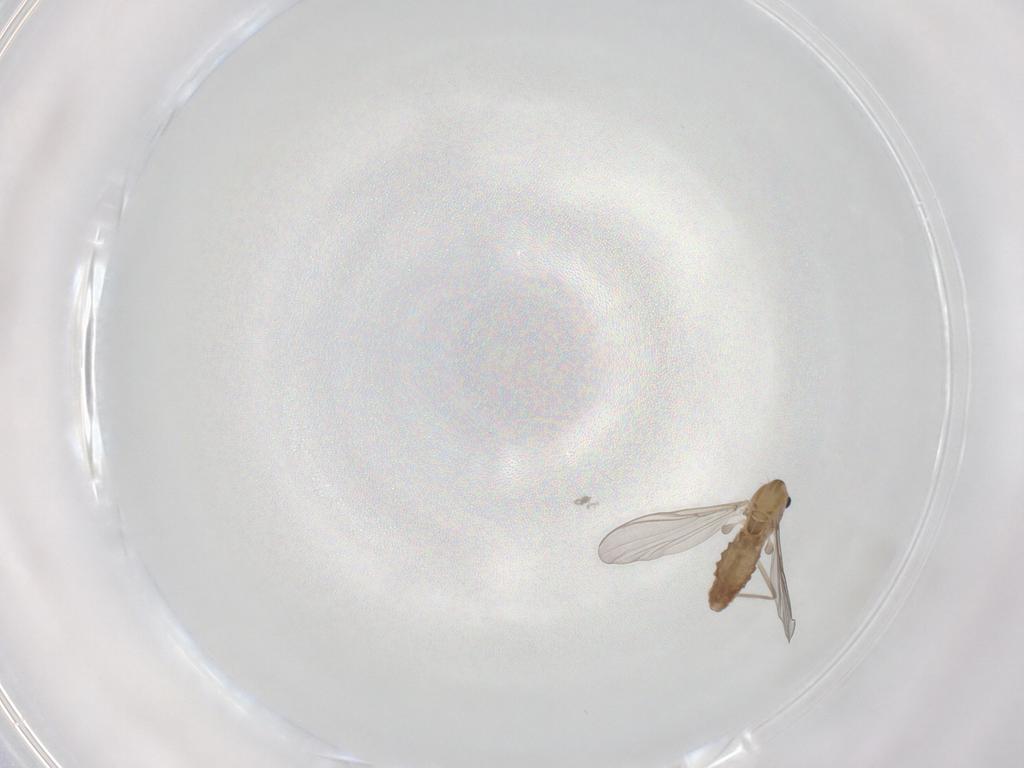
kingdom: Animalia
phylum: Arthropoda
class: Insecta
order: Diptera
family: Chironomidae
